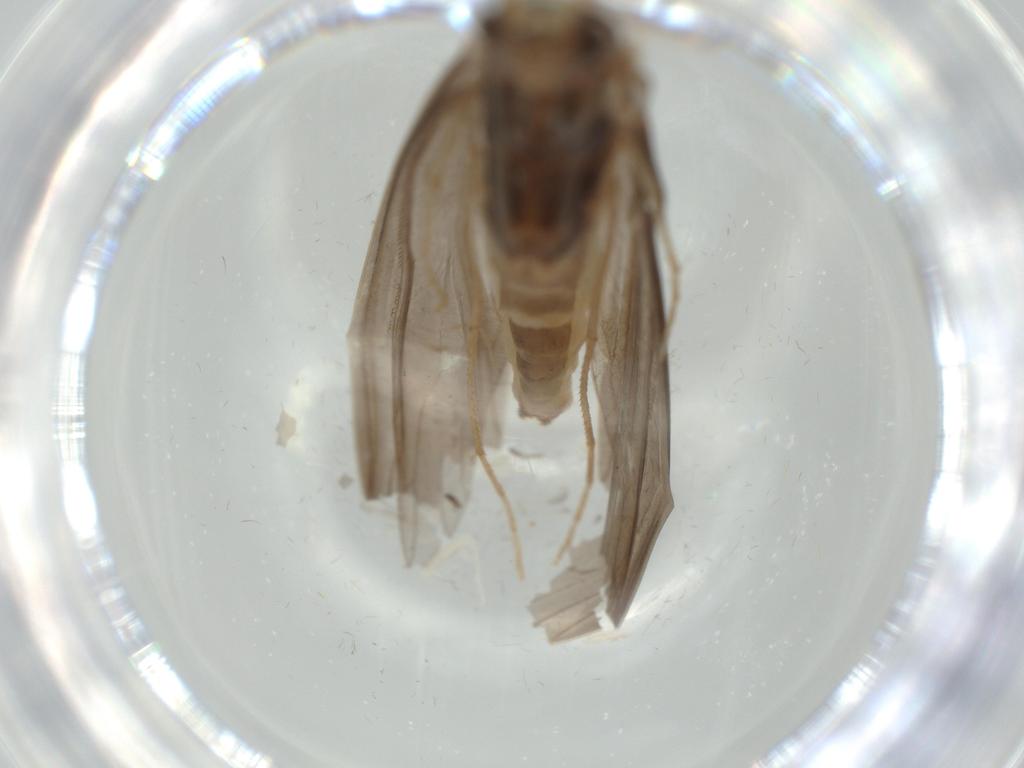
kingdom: Animalia
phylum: Arthropoda
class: Insecta
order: Trichoptera
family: Leptoceridae
